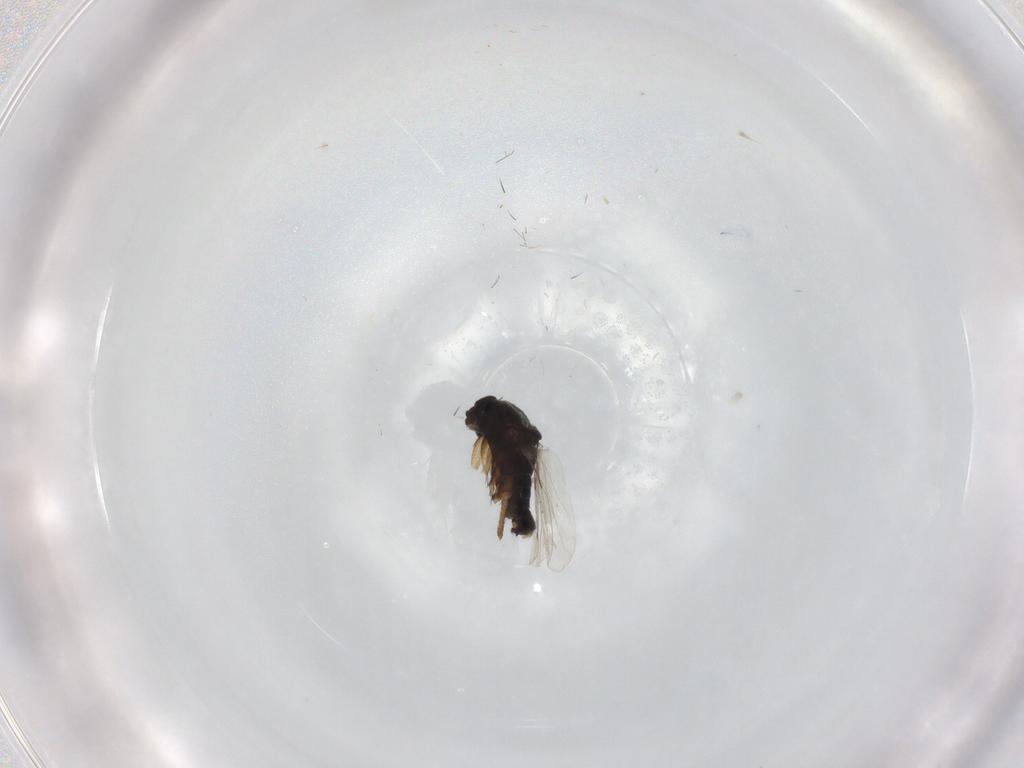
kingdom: Animalia
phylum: Arthropoda
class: Insecta
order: Diptera
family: Phoridae
